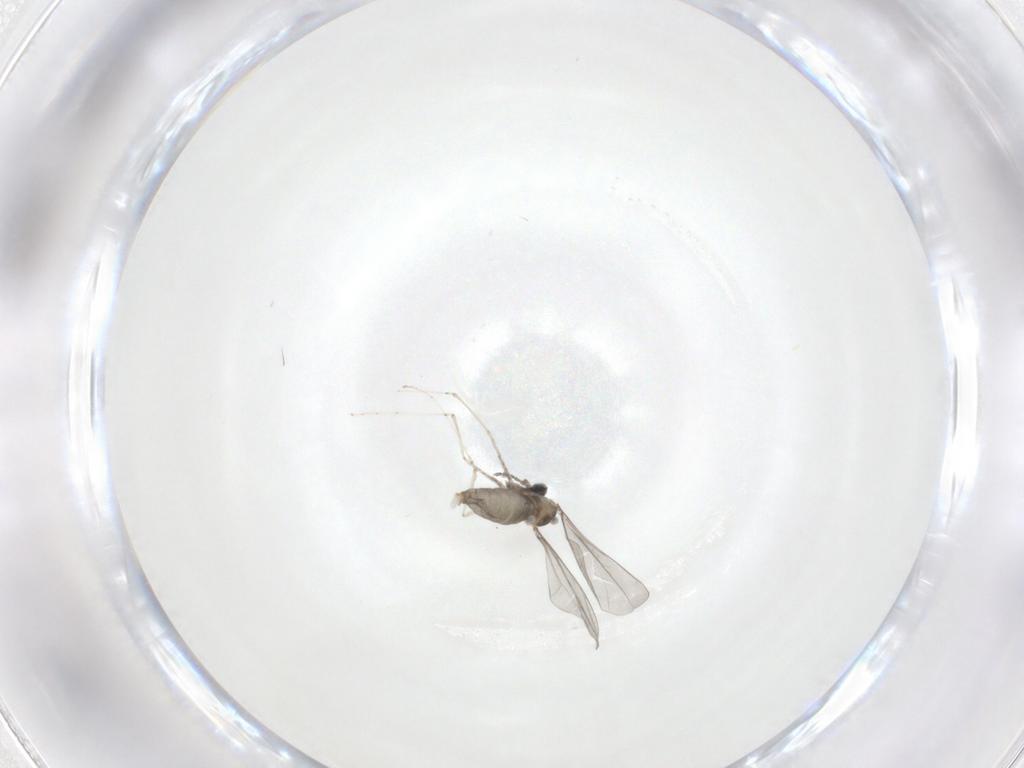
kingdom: Animalia
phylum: Arthropoda
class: Insecta
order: Diptera
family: Cecidomyiidae
